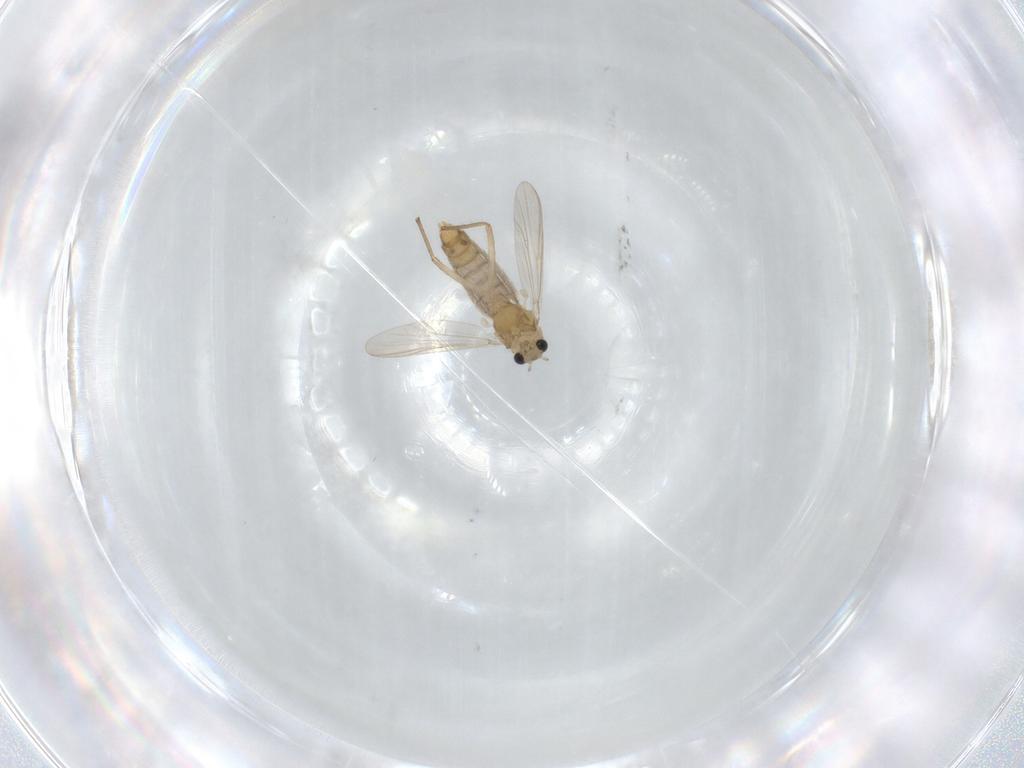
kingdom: Animalia
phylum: Arthropoda
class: Insecta
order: Diptera
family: Chironomidae
